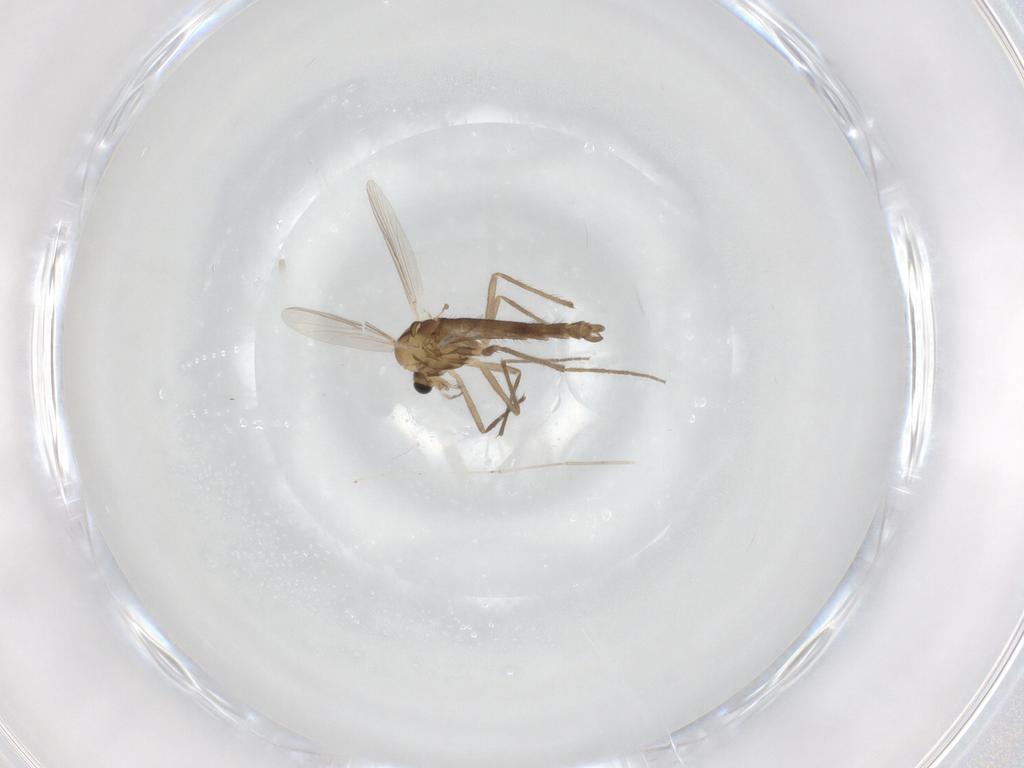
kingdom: Animalia
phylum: Arthropoda
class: Insecta
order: Diptera
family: Chironomidae
